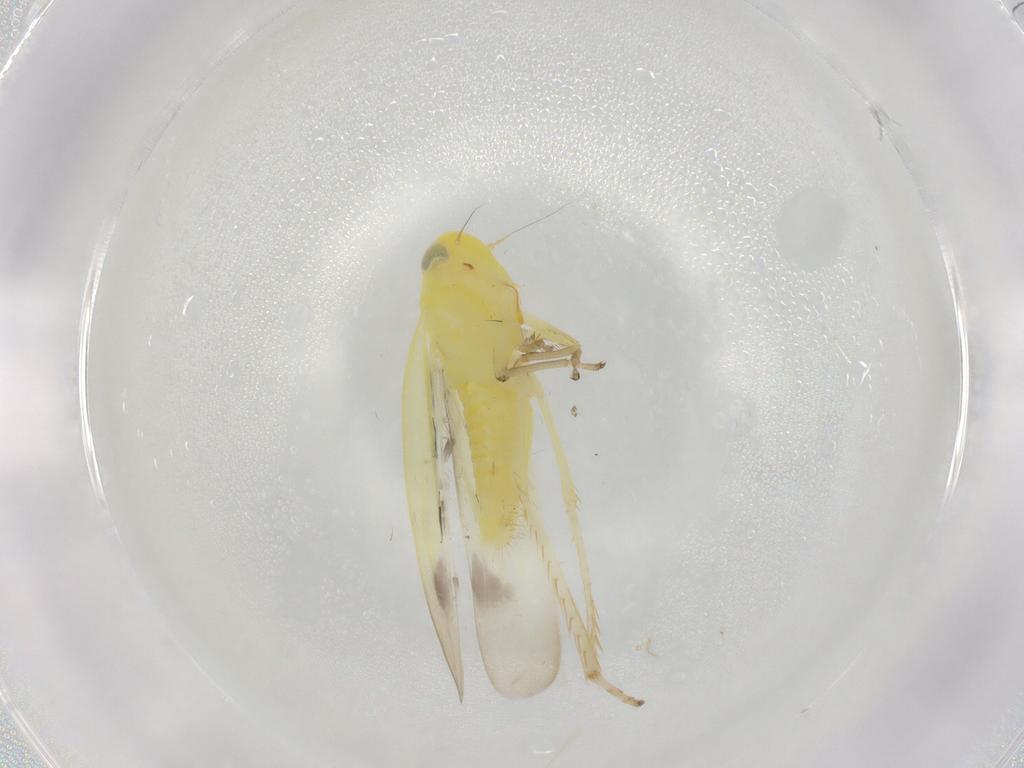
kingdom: Animalia
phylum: Arthropoda
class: Insecta
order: Hemiptera
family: Cicadellidae
